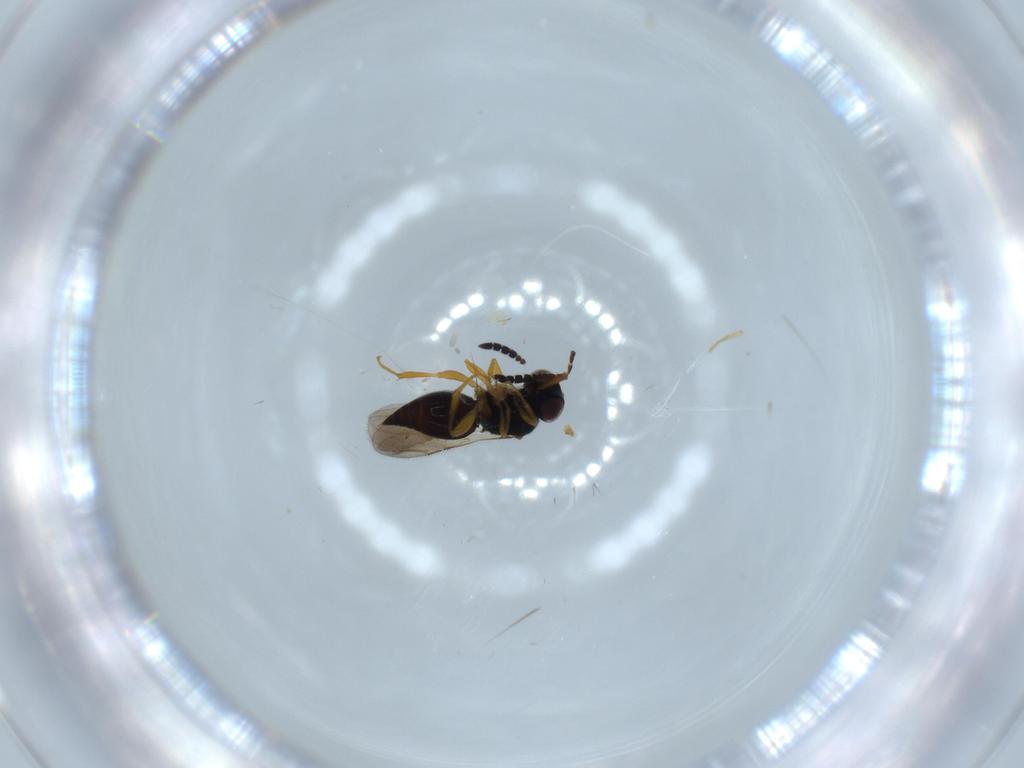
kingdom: Animalia
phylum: Arthropoda
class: Insecta
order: Hymenoptera
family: Ceraphronidae
